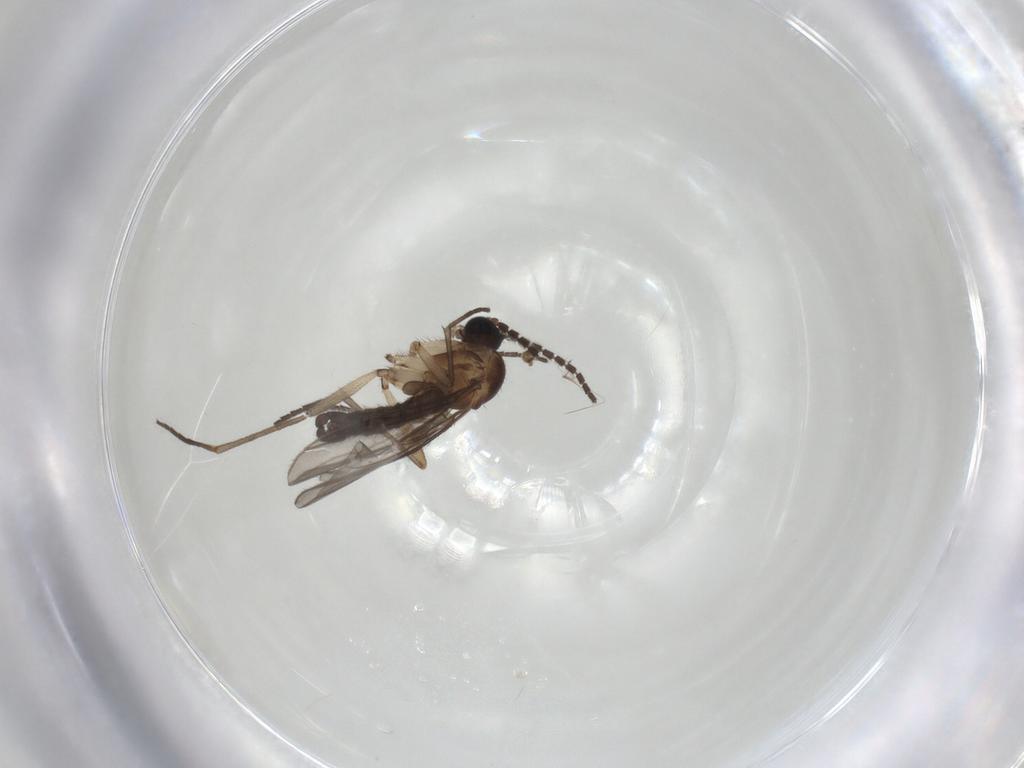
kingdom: Animalia
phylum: Arthropoda
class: Insecta
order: Diptera
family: Sciaridae
